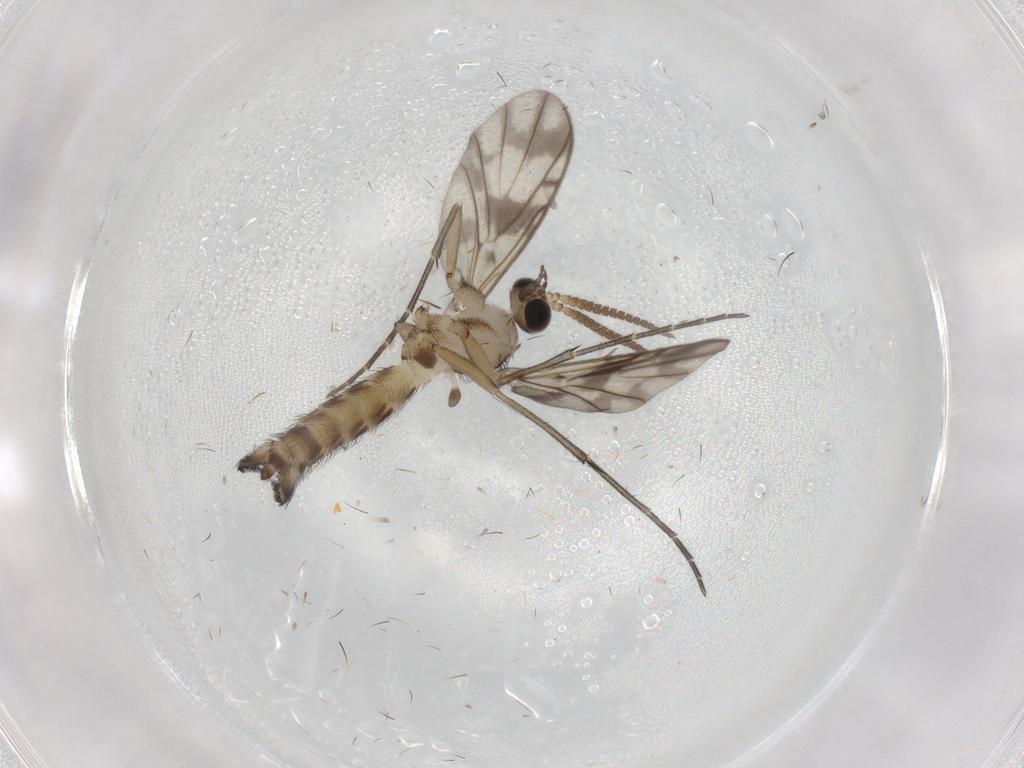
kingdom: Animalia
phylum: Arthropoda
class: Insecta
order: Diptera
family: Keroplatidae
